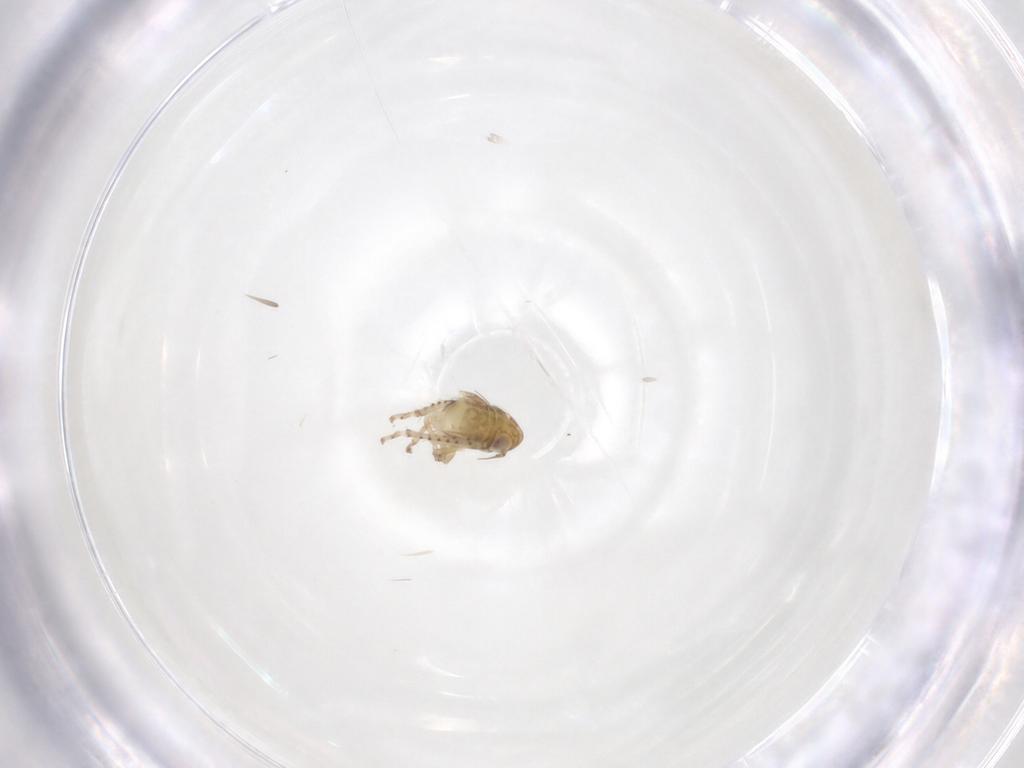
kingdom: Animalia
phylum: Arthropoda
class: Insecta
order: Hemiptera
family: Cicadellidae
